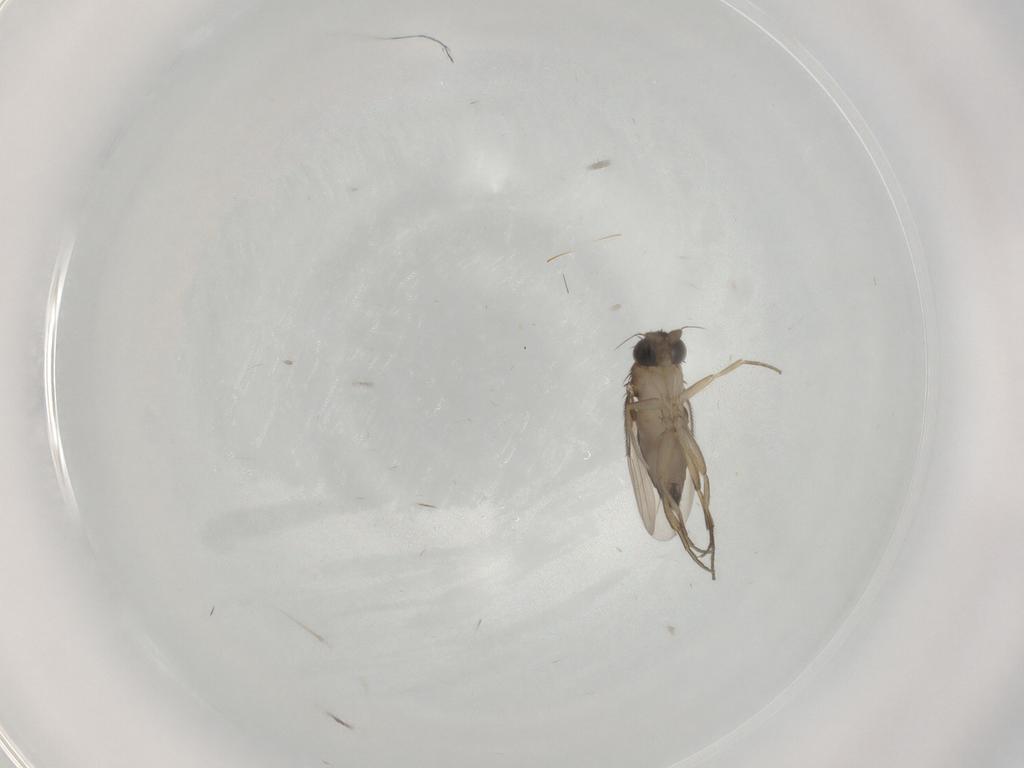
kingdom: Animalia
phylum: Arthropoda
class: Insecta
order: Diptera
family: Phoridae
